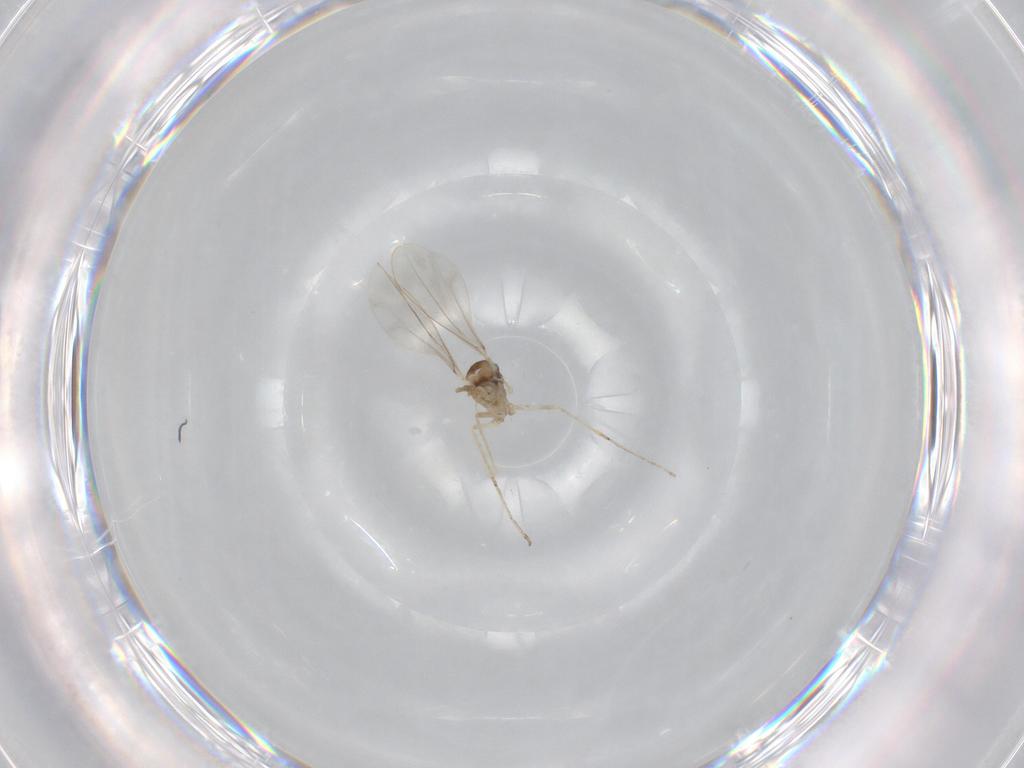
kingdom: Animalia
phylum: Arthropoda
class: Insecta
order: Diptera
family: Cecidomyiidae
